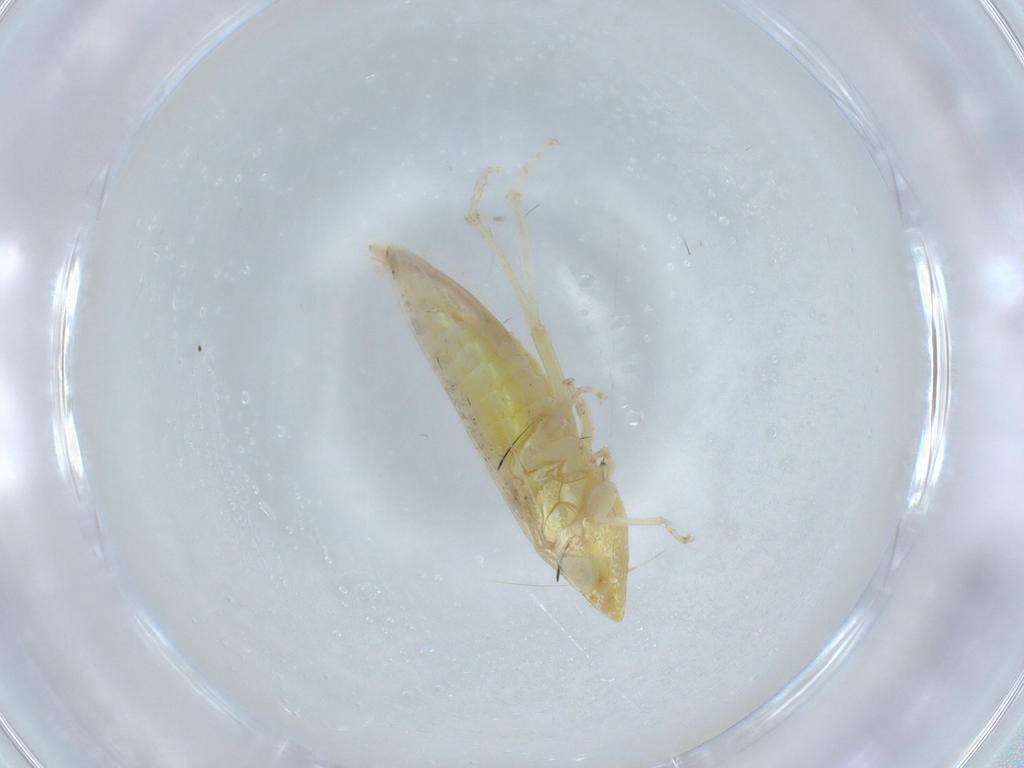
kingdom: Animalia
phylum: Arthropoda
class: Insecta
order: Hemiptera
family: Cicadellidae
